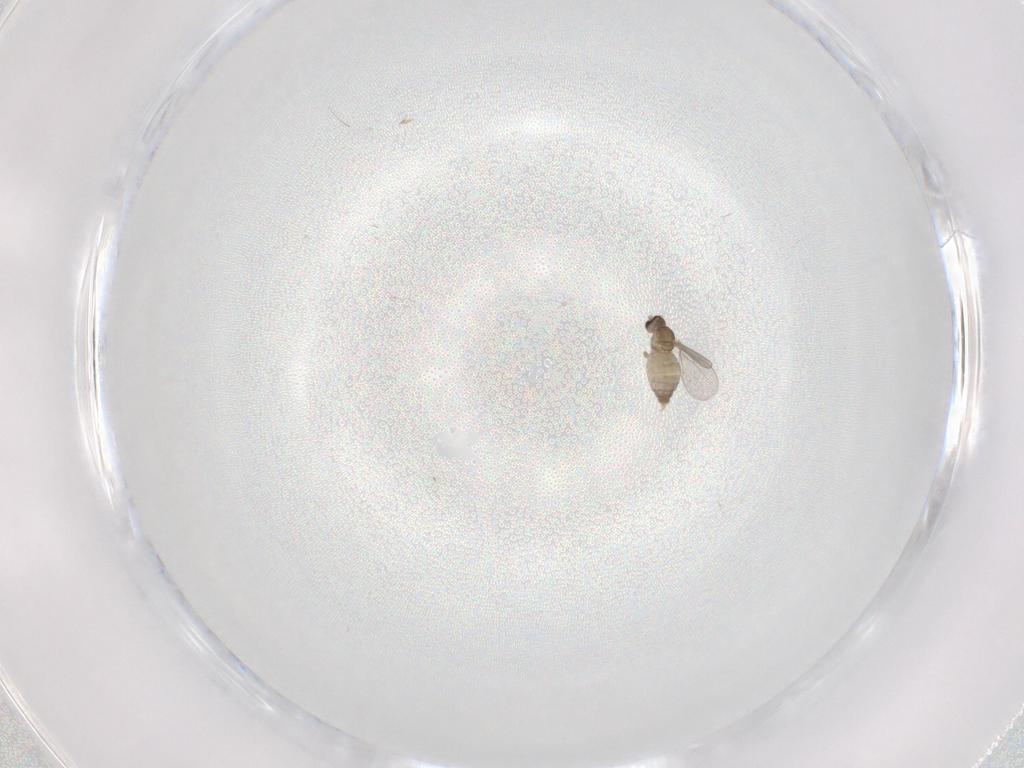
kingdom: Animalia
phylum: Arthropoda
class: Insecta
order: Diptera
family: Cecidomyiidae
